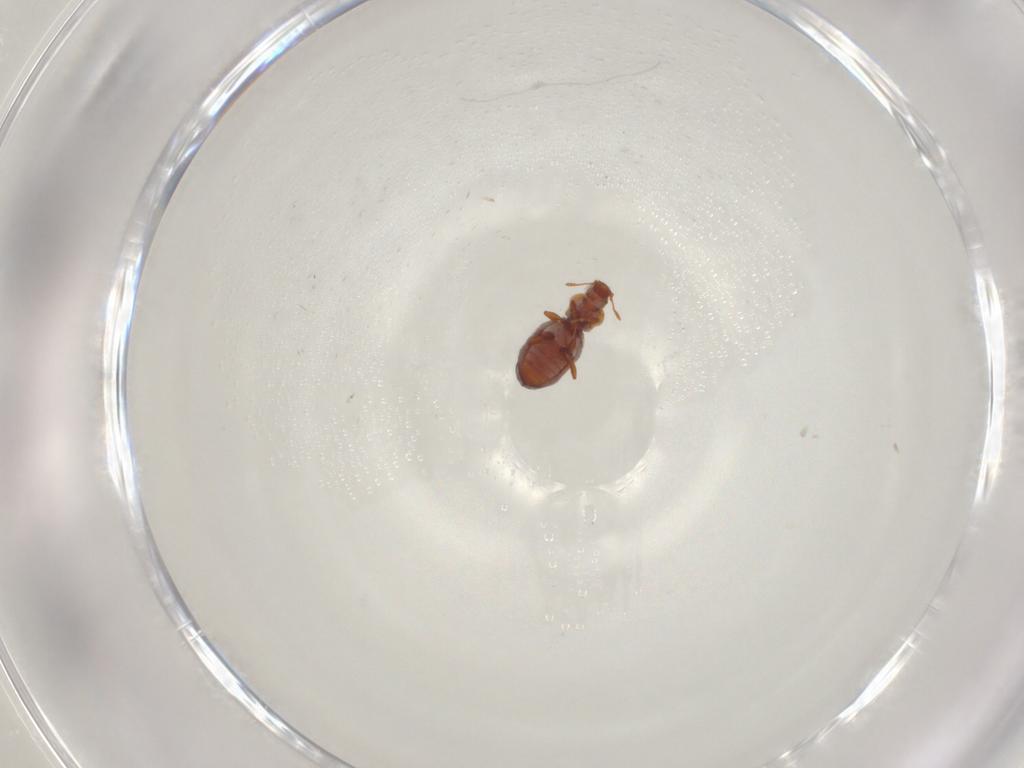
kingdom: Animalia
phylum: Arthropoda
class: Insecta
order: Coleoptera
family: Latridiidae
